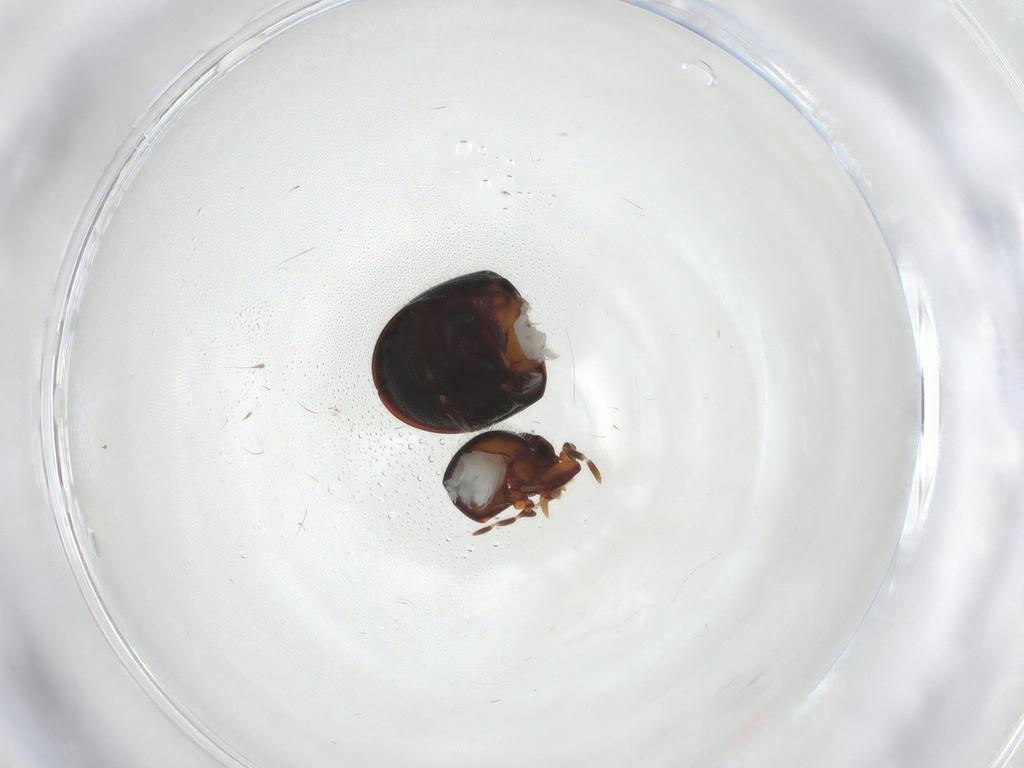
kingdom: Animalia
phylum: Arthropoda
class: Insecta
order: Coleoptera
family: Ptinidae
